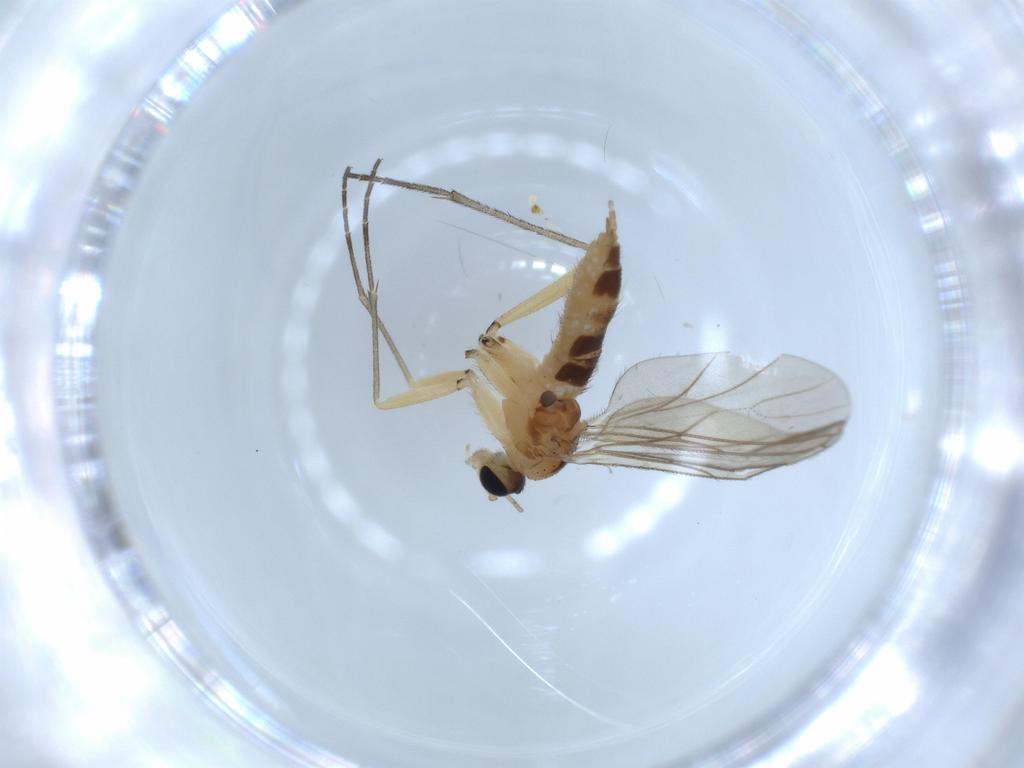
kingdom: Animalia
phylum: Arthropoda
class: Insecta
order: Diptera
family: Sciaridae
